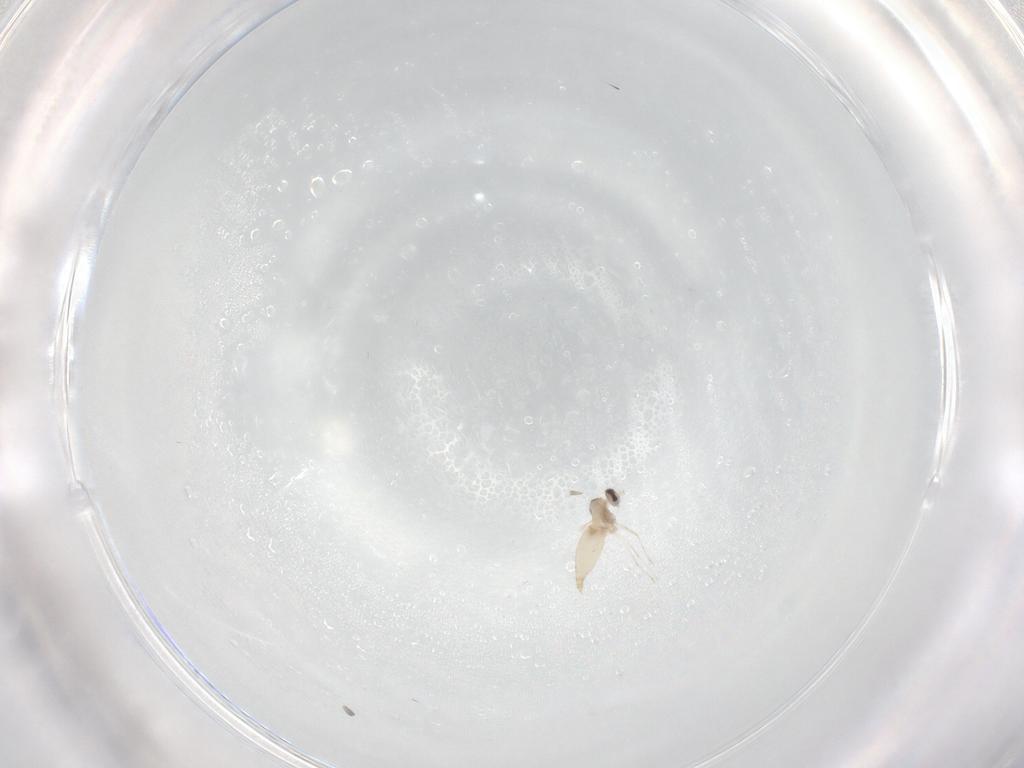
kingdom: Animalia
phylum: Arthropoda
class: Insecta
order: Diptera
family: Cecidomyiidae
